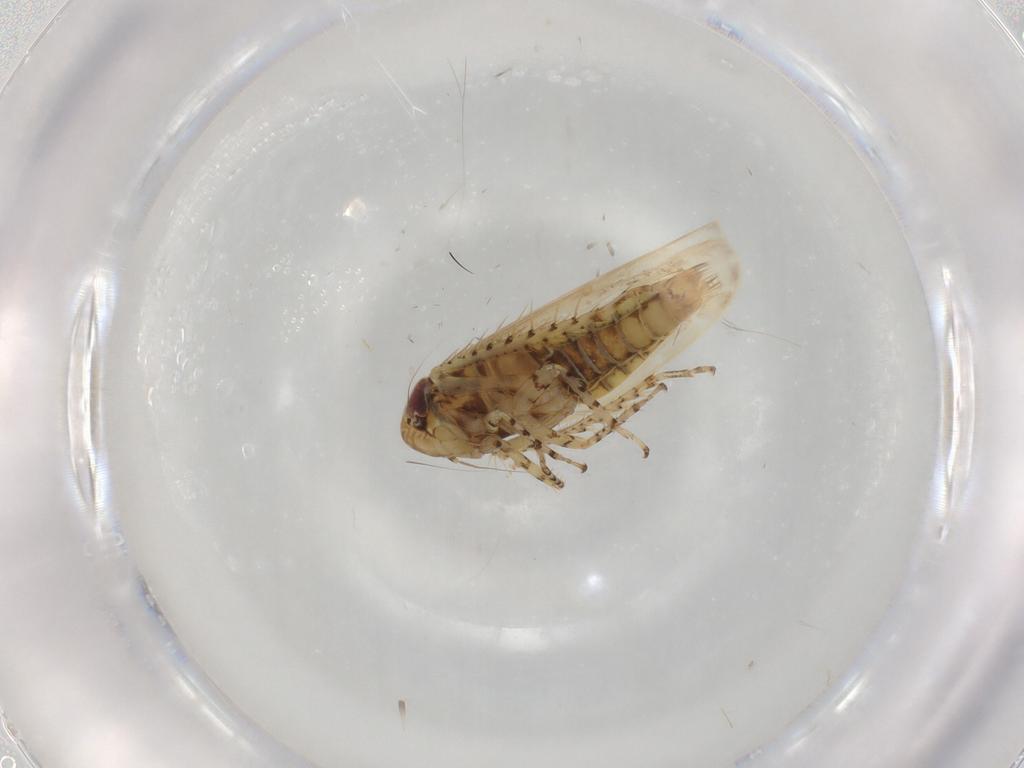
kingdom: Animalia
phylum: Arthropoda
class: Insecta
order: Hemiptera
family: Cicadellidae
